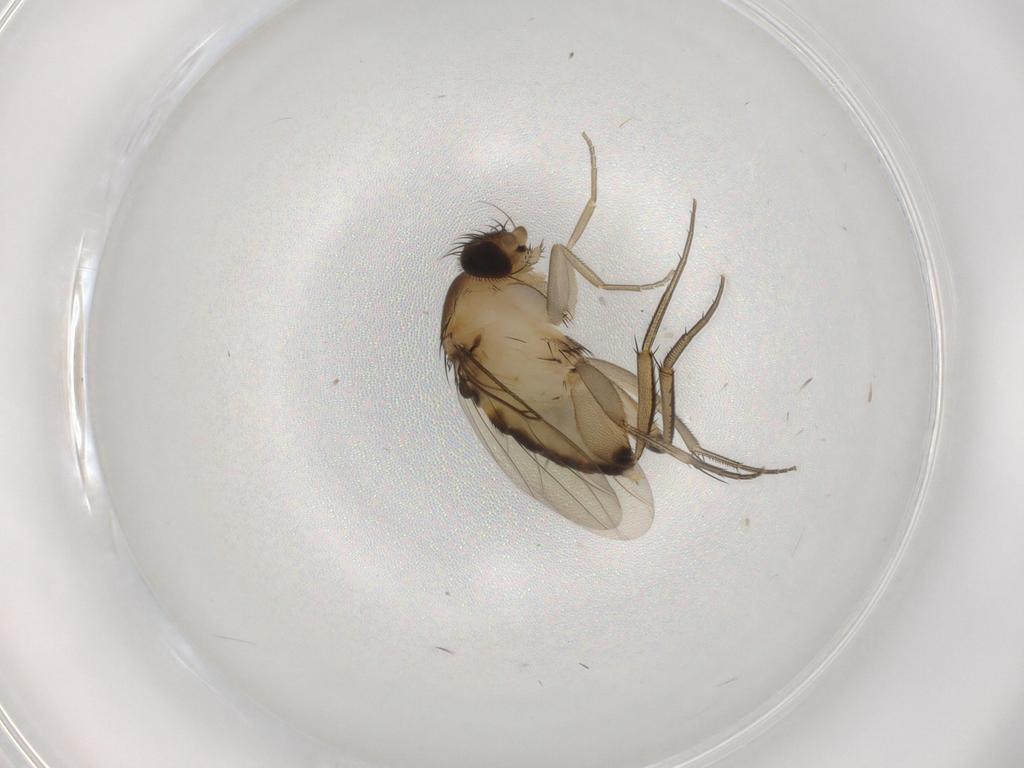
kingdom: Animalia
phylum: Arthropoda
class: Insecta
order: Diptera
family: Phoridae
